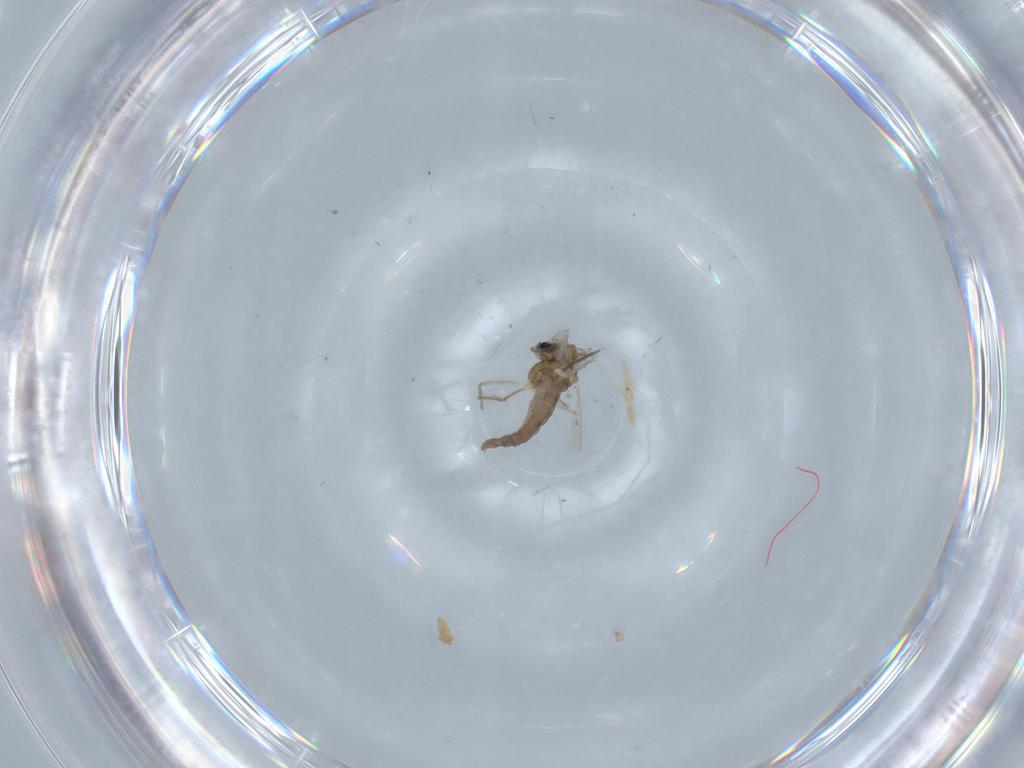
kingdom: Animalia
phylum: Arthropoda
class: Insecta
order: Diptera
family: Chironomidae
